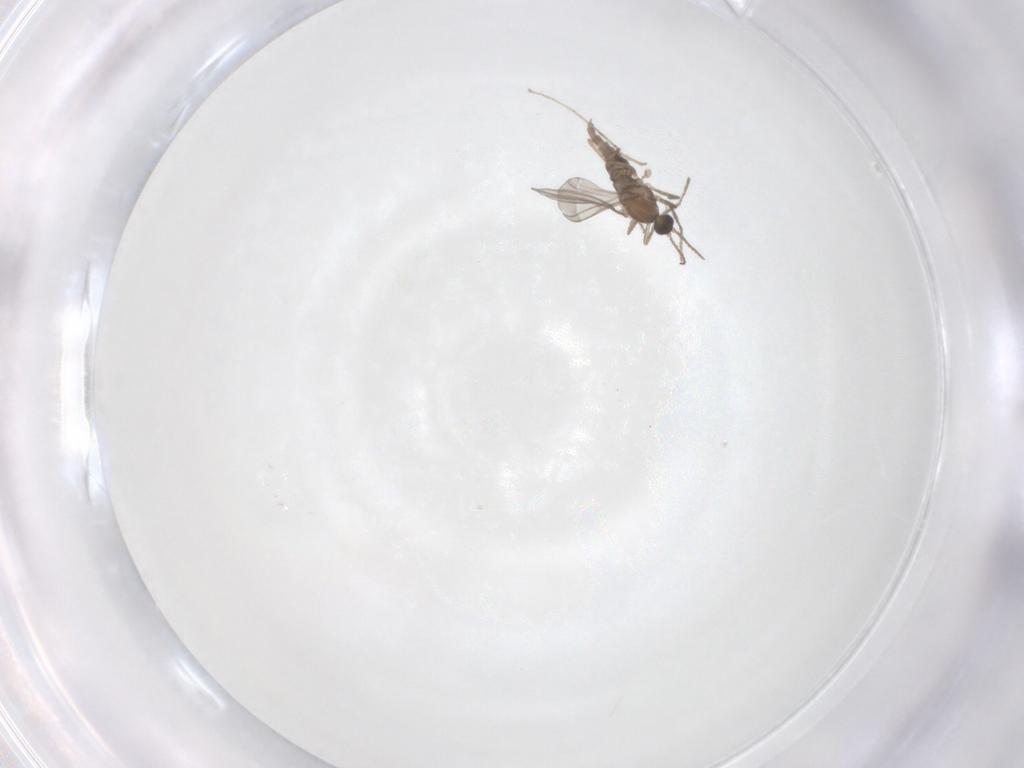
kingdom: Animalia
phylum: Arthropoda
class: Insecta
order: Diptera
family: Cecidomyiidae
